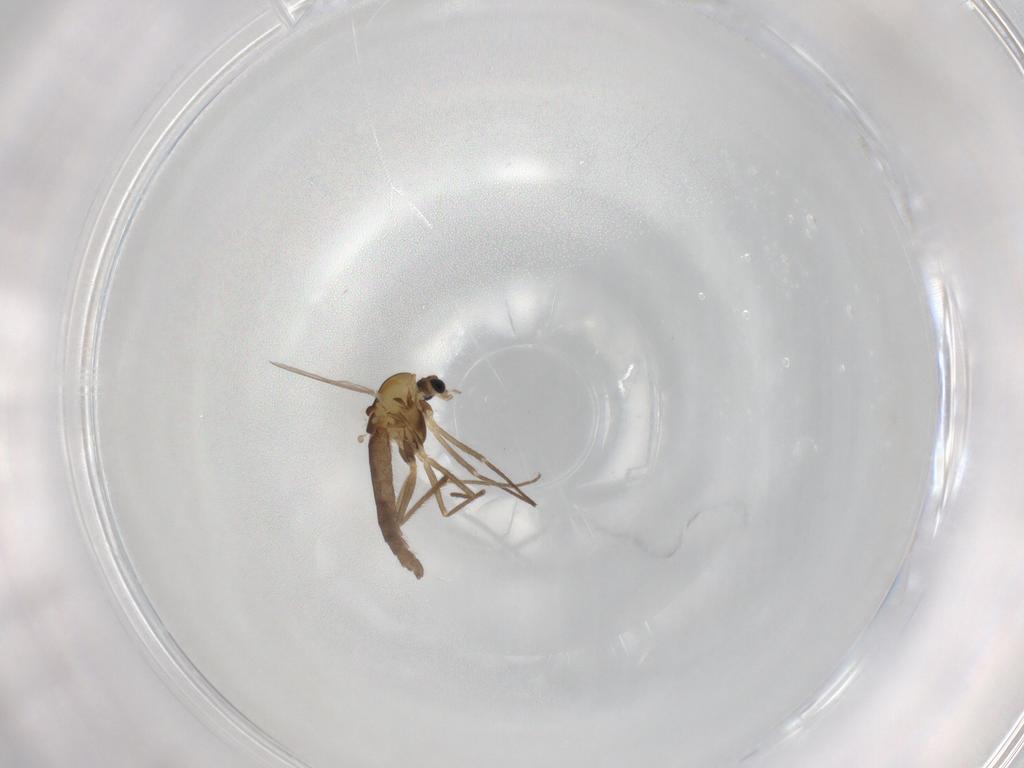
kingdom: Animalia
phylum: Arthropoda
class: Insecta
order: Diptera
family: Chironomidae
